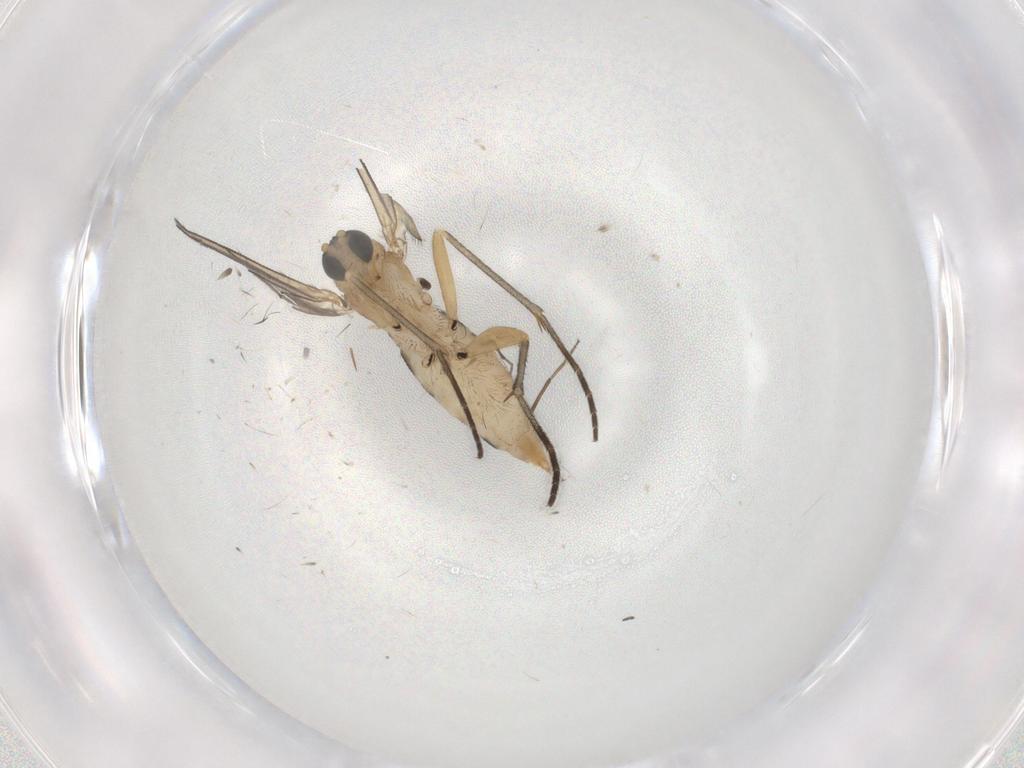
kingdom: Animalia
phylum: Arthropoda
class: Insecta
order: Diptera
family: Sciaridae
